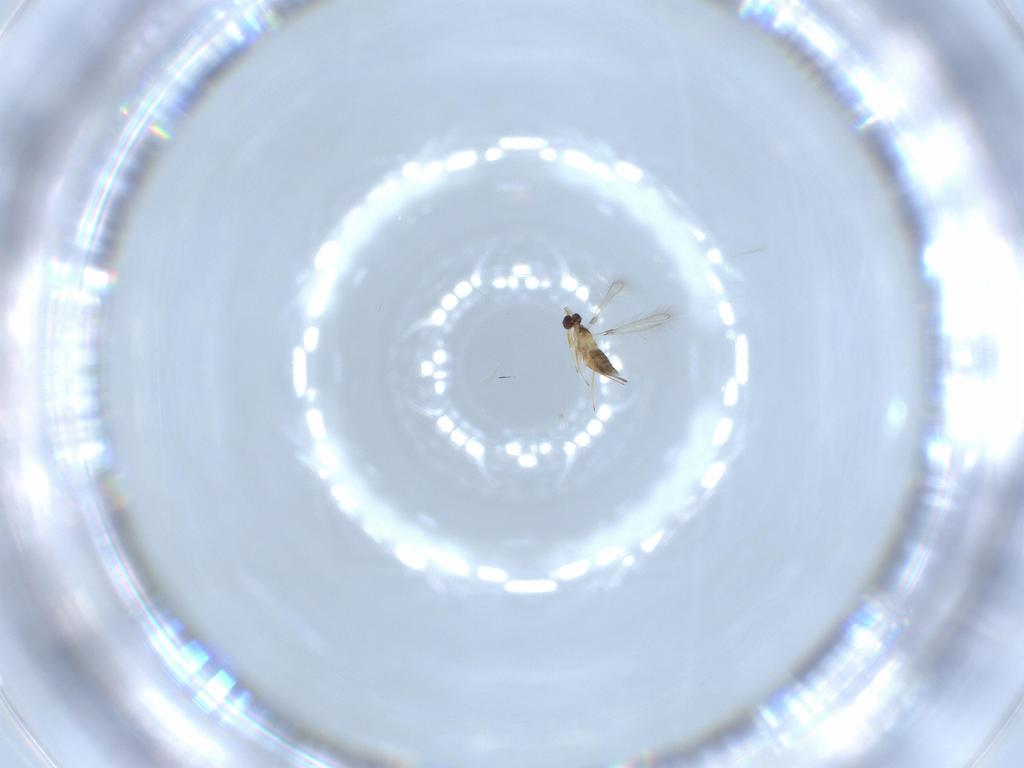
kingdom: Animalia
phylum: Arthropoda
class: Insecta
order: Hymenoptera
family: Mymaridae
